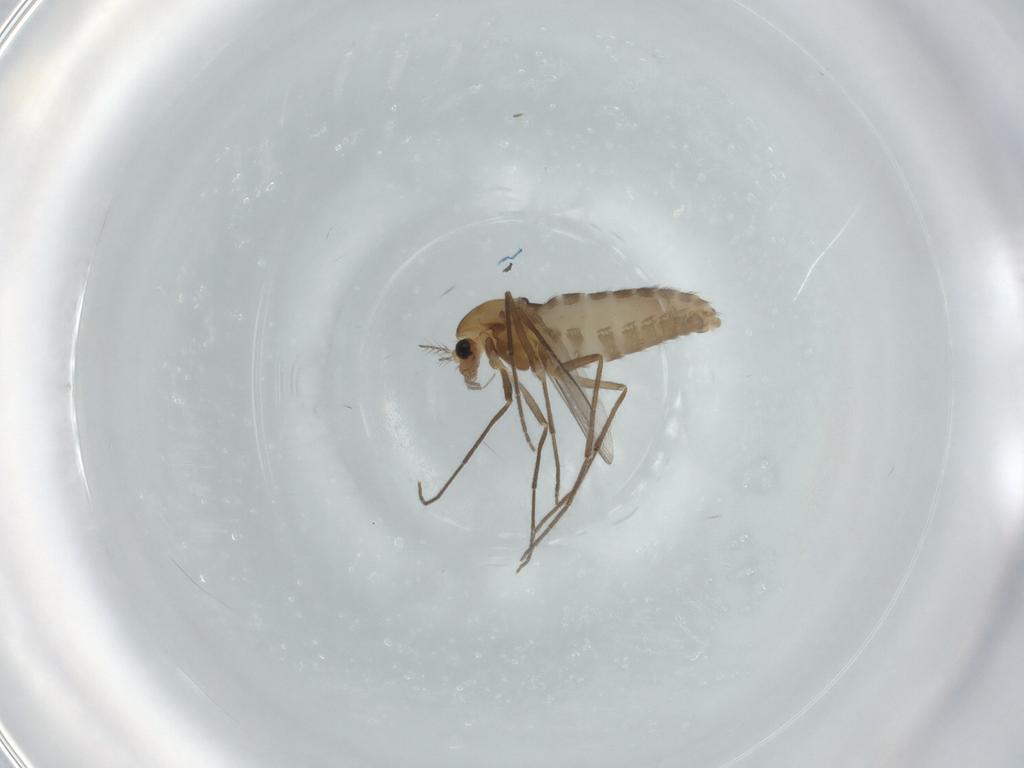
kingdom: Animalia
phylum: Arthropoda
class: Insecta
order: Diptera
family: Chironomidae
